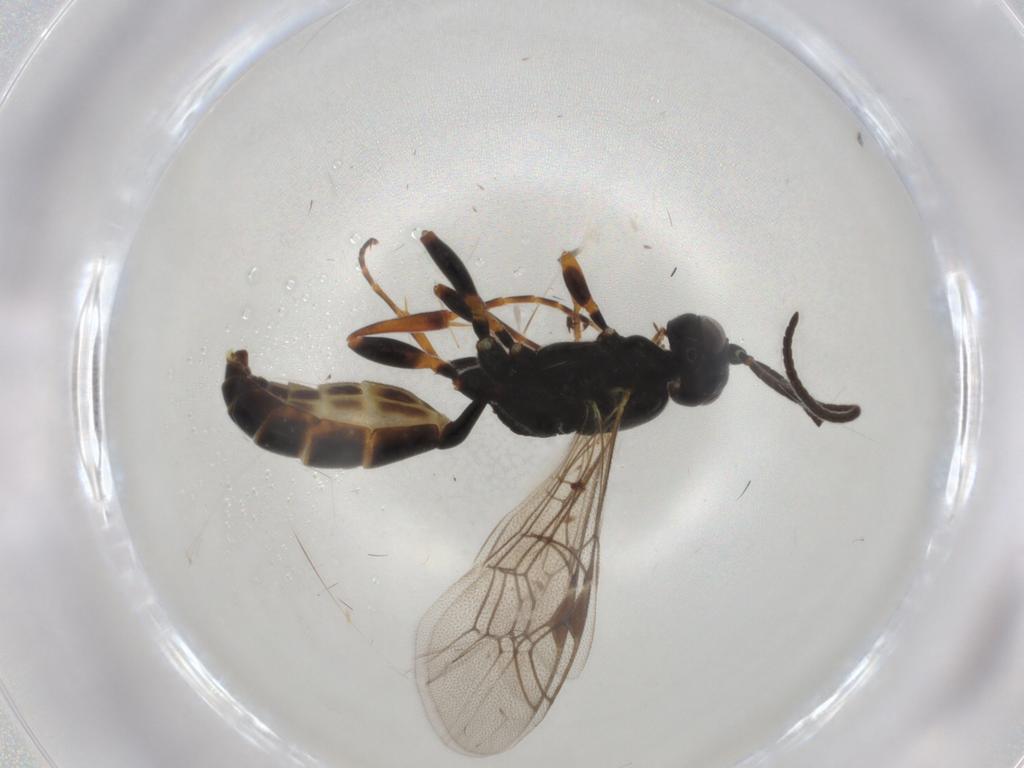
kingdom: Animalia
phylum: Arthropoda
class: Insecta
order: Hymenoptera
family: Ichneumonidae
